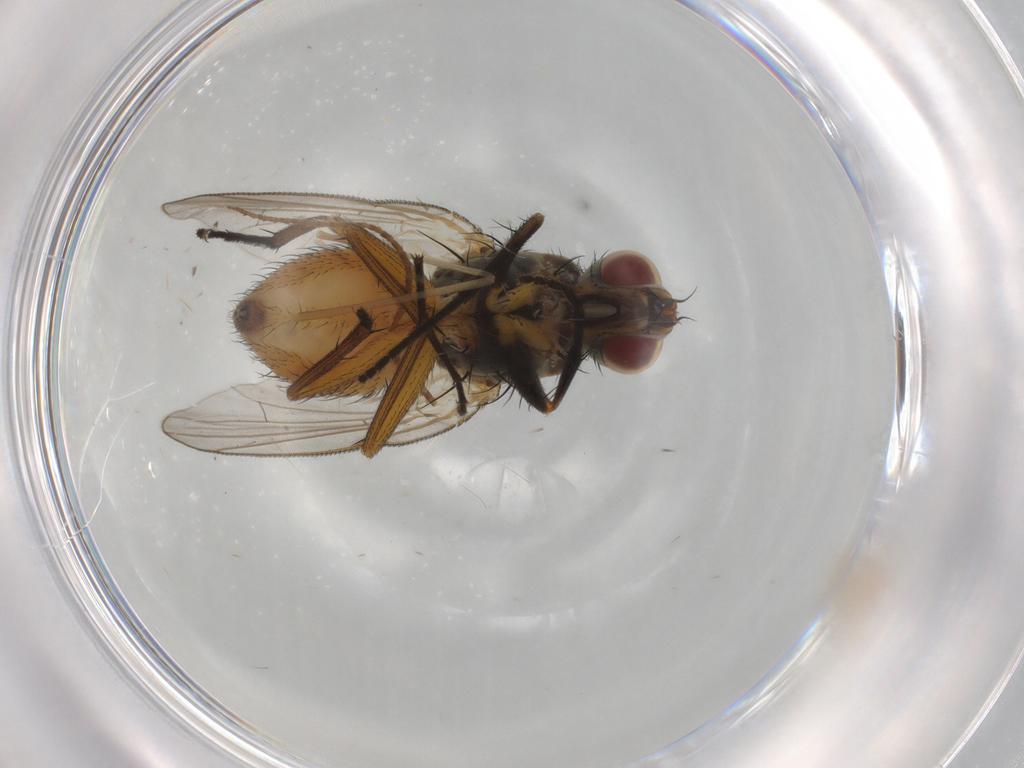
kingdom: Animalia
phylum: Arthropoda
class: Insecta
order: Diptera
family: Muscidae
